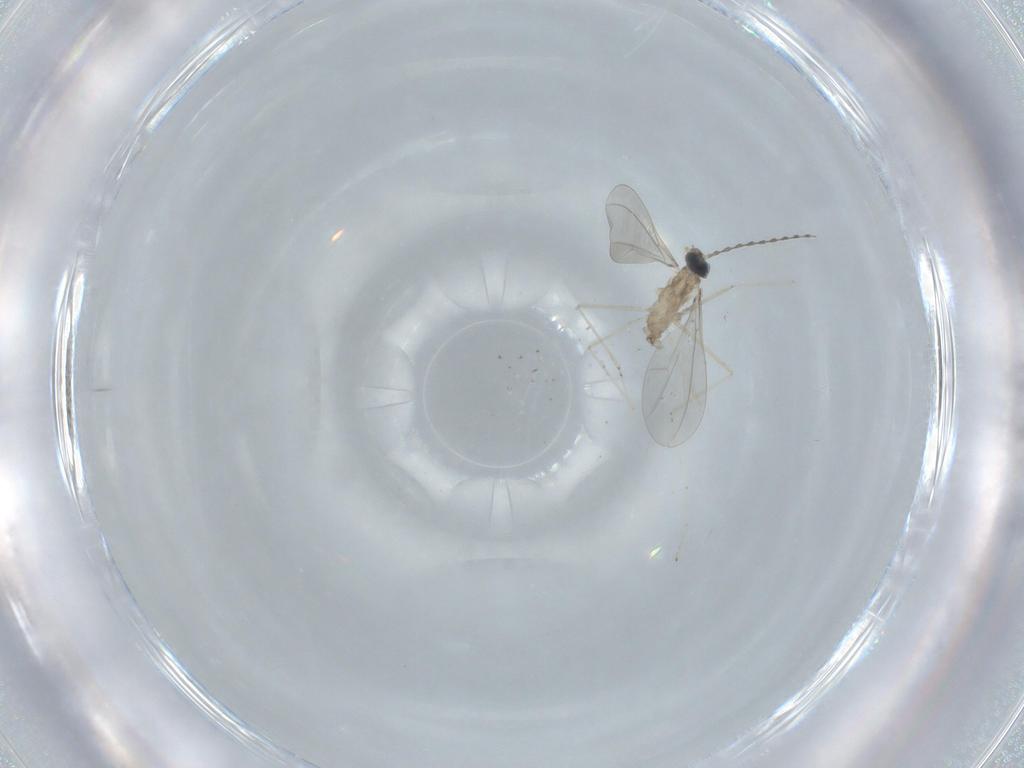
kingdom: Animalia
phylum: Arthropoda
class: Insecta
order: Diptera
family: Cecidomyiidae
